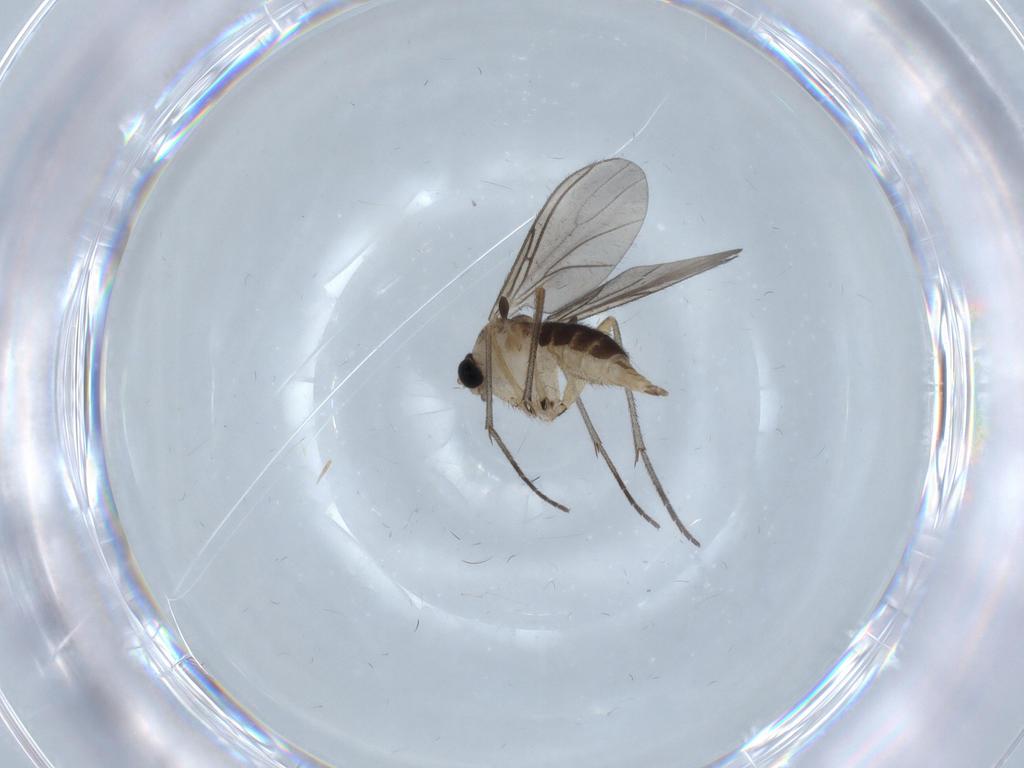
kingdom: Animalia
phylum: Arthropoda
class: Insecta
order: Diptera
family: Sciaridae
